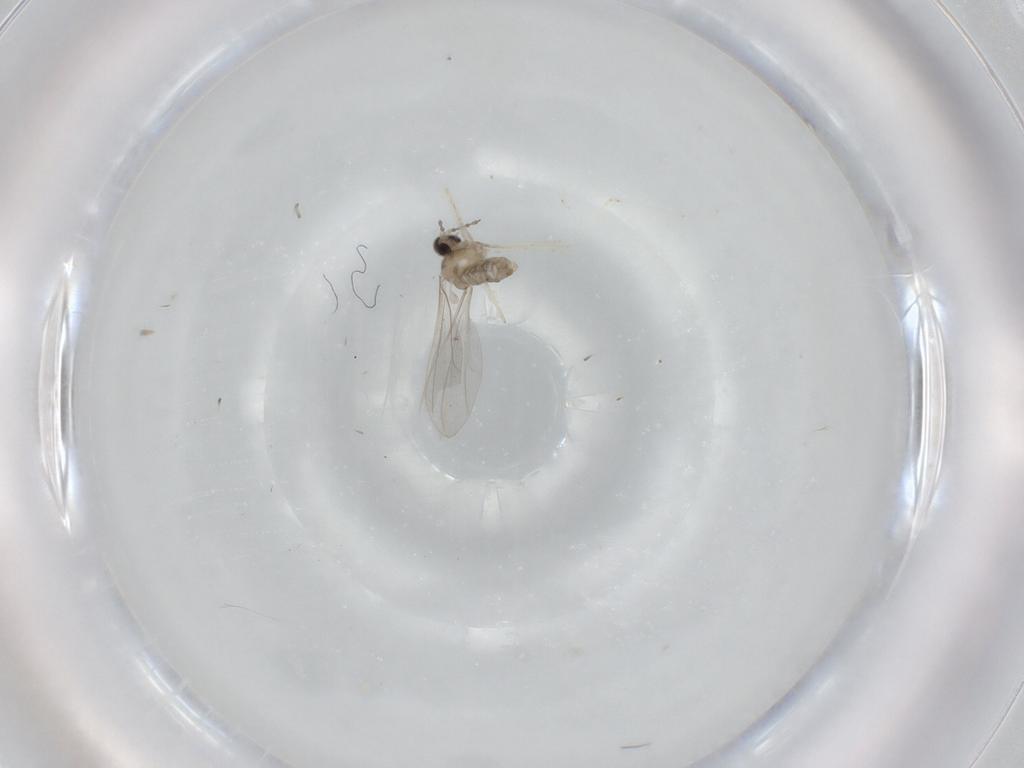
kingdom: Animalia
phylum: Arthropoda
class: Insecta
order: Diptera
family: Cecidomyiidae
